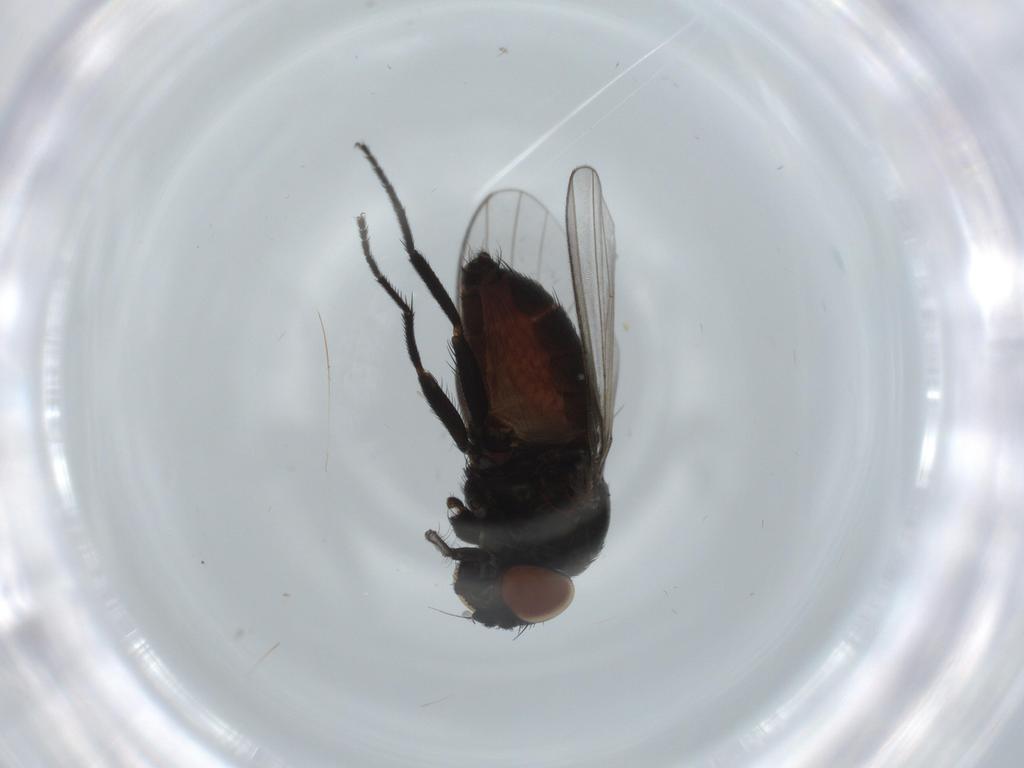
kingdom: Animalia
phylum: Arthropoda
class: Insecta
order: Diptera
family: Milichiidae
